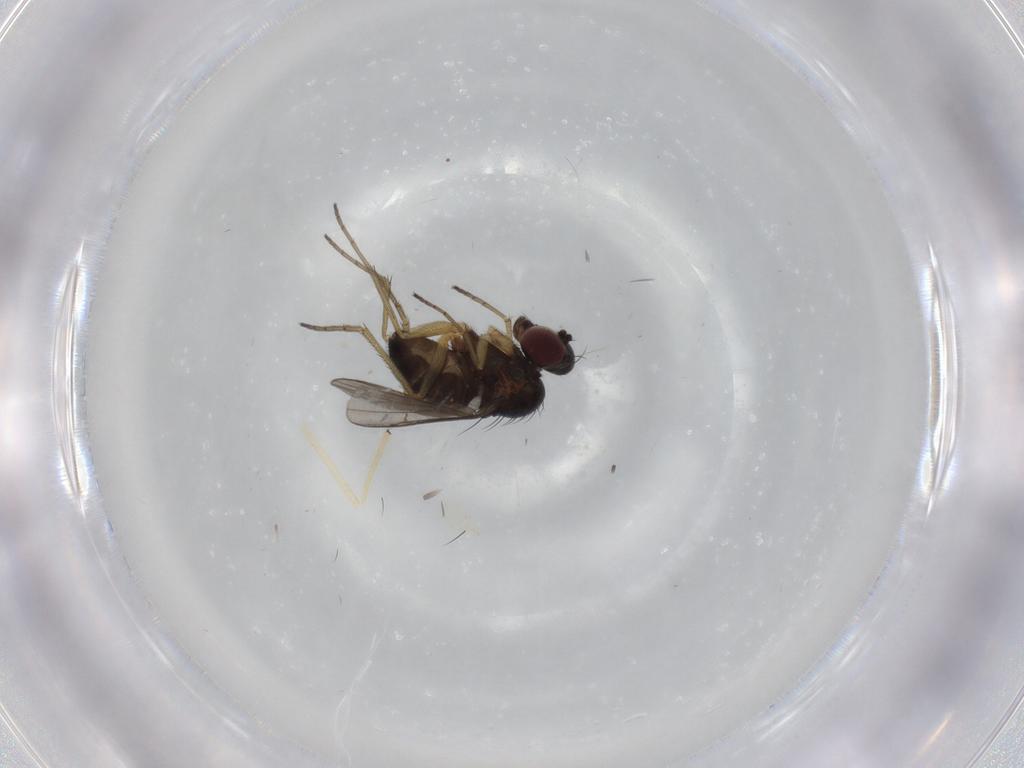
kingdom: Animalia
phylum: Arthropoda
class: Insecta
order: Diptera
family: Dolichopodidae
